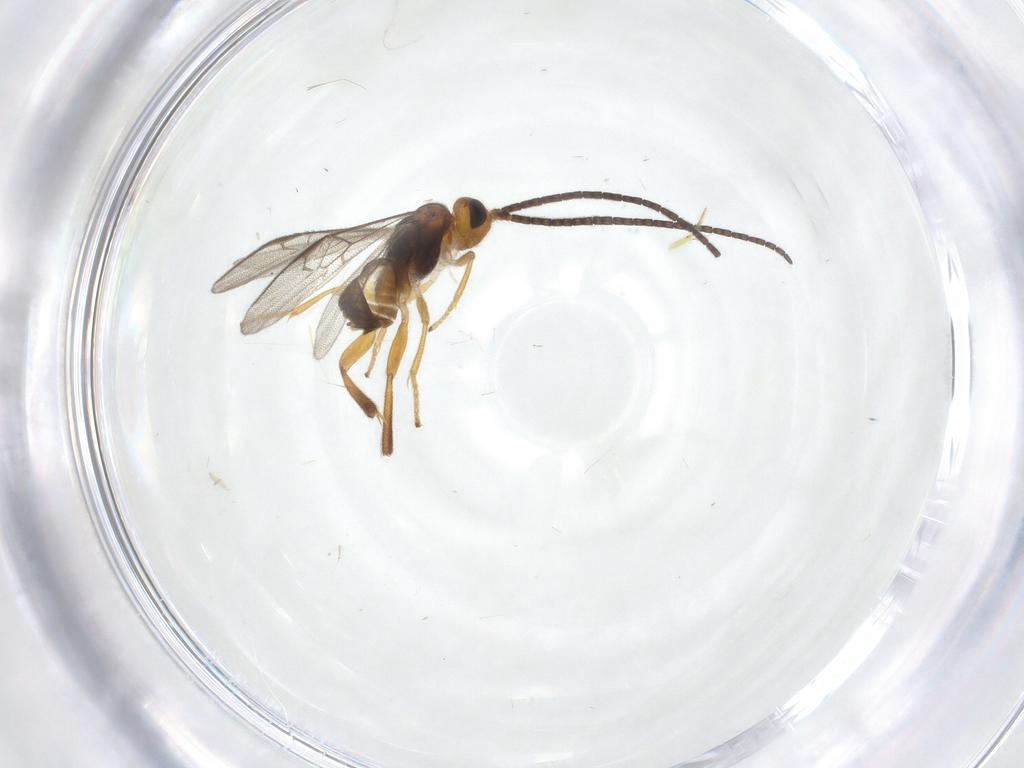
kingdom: Animalia
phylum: Arthropoda
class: Insecta
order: Hymenoptera
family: Braconidae
